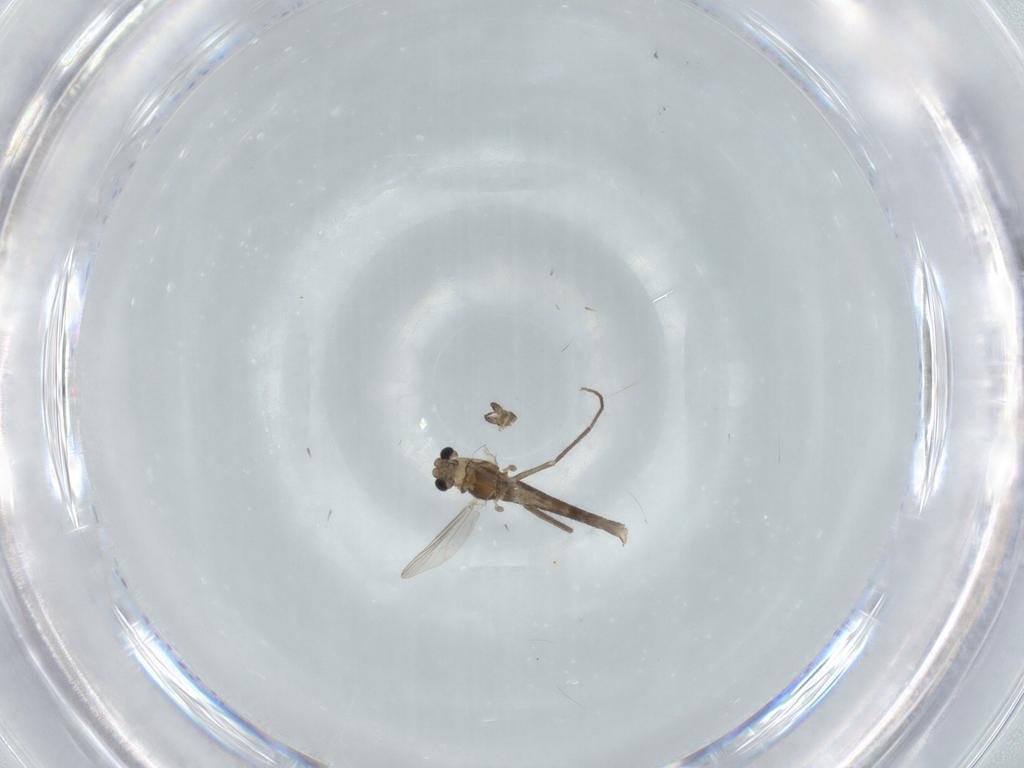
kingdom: Animalia
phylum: Arthropoda
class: Insecta
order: Diptera
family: Chironomidae
